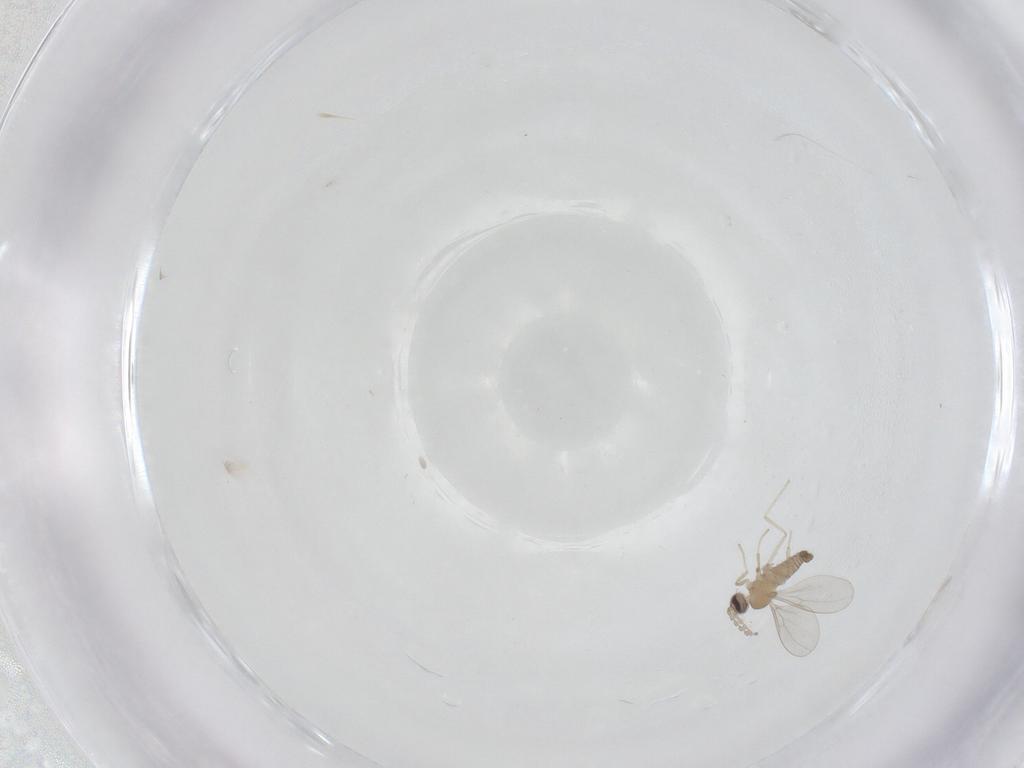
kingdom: Animalia
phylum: Arthropoda
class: Insecta
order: Diptera
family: Cecidomyiidae
